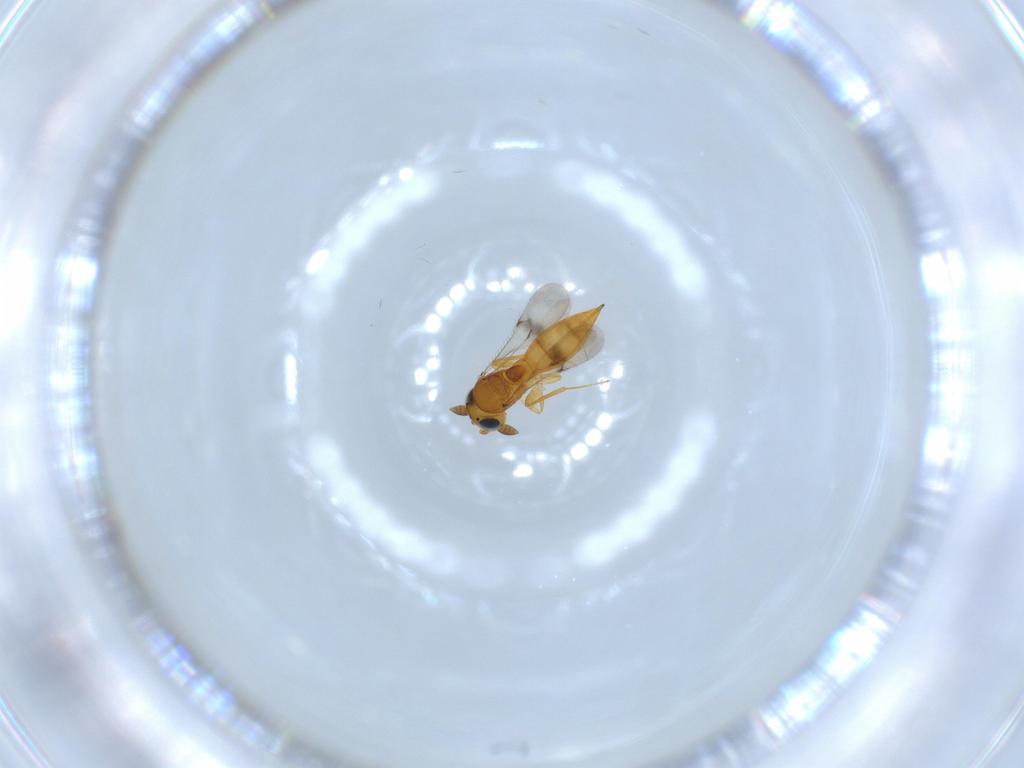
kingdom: Animalia
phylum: Arthropoda
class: Insecta
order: Hymenoptera
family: Scelionidae
